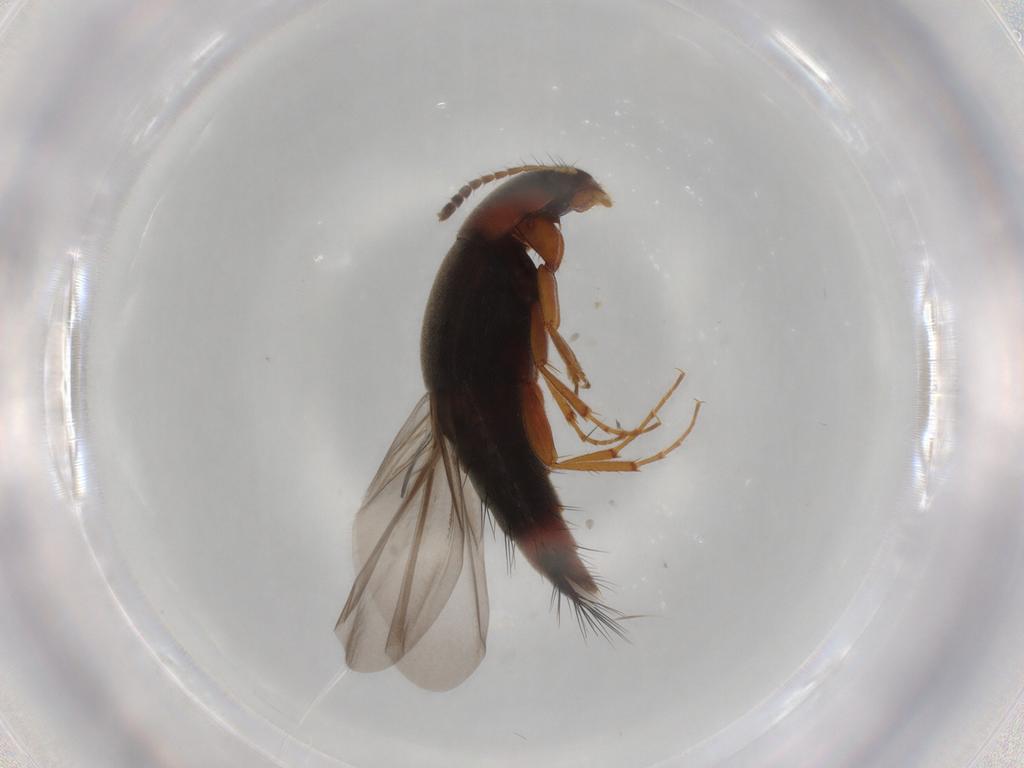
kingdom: Animalia
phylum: Arthropoda
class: Insecta
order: Coleoptera
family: Staphylinidae
